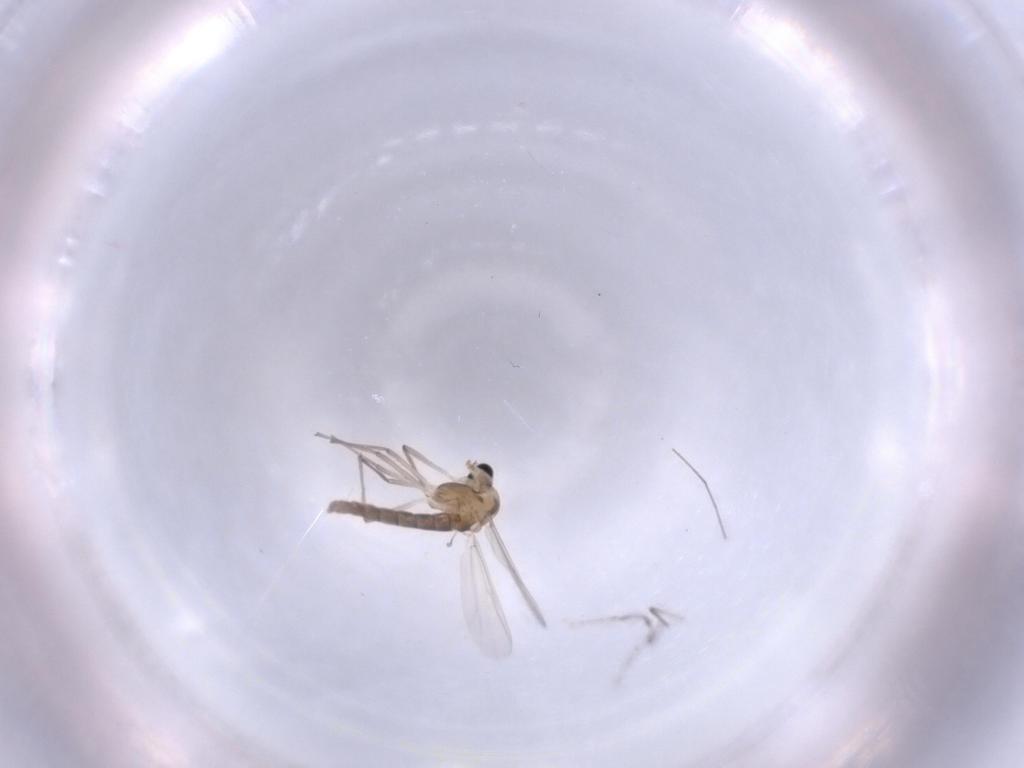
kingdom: Animalia
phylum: Arthropoda
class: Insecta
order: Diptera
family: Chironomidae
